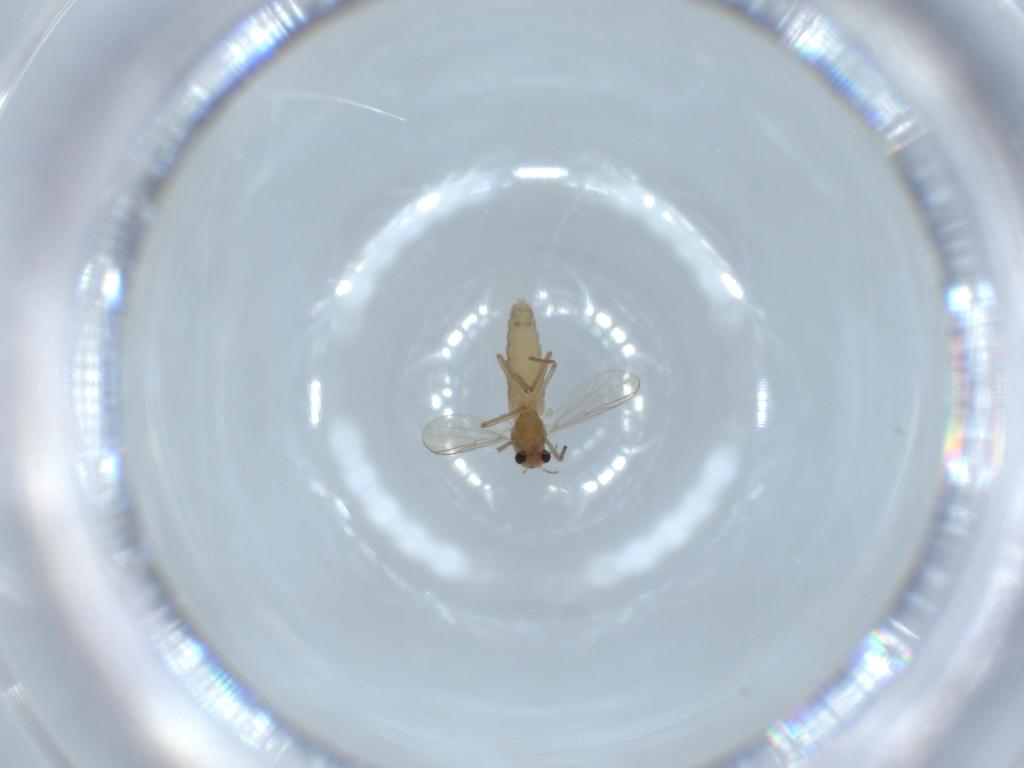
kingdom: Animalia
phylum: Arthropoda
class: Insecta
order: Diptera
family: Chironomidae
